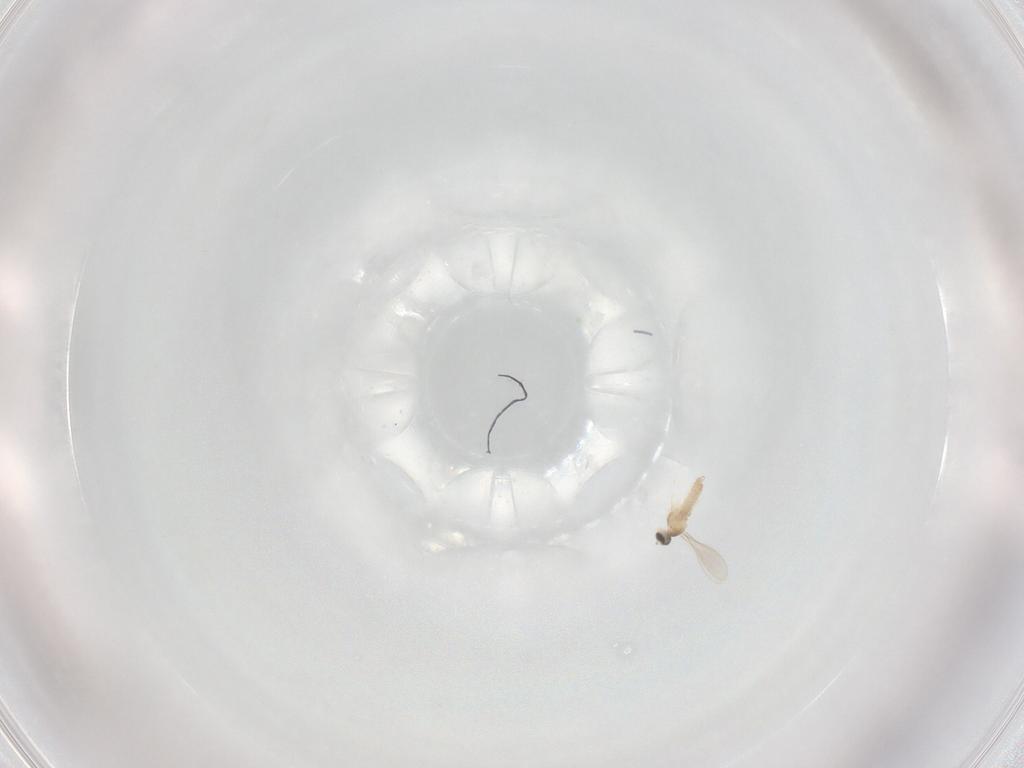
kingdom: Animalia
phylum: Arthropoda
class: Insecta
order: Diptera
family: Cecidomyiidae
